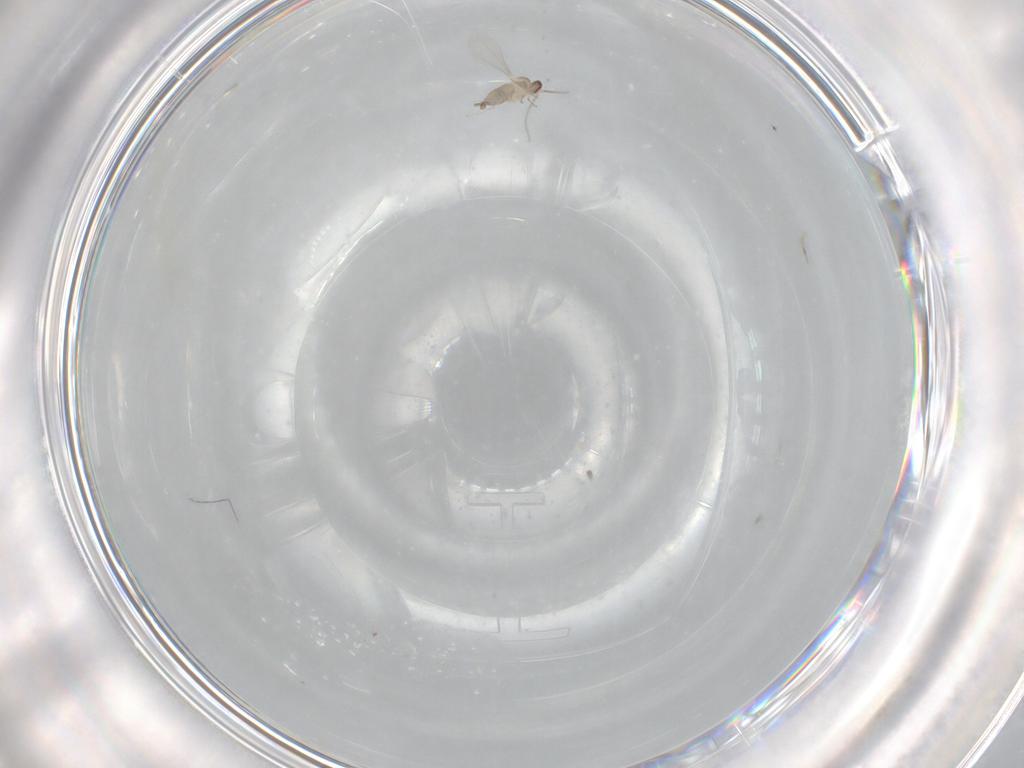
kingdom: Animalia
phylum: Arthropoda
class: Insecta
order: Diptera
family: Cecidomyiidae
